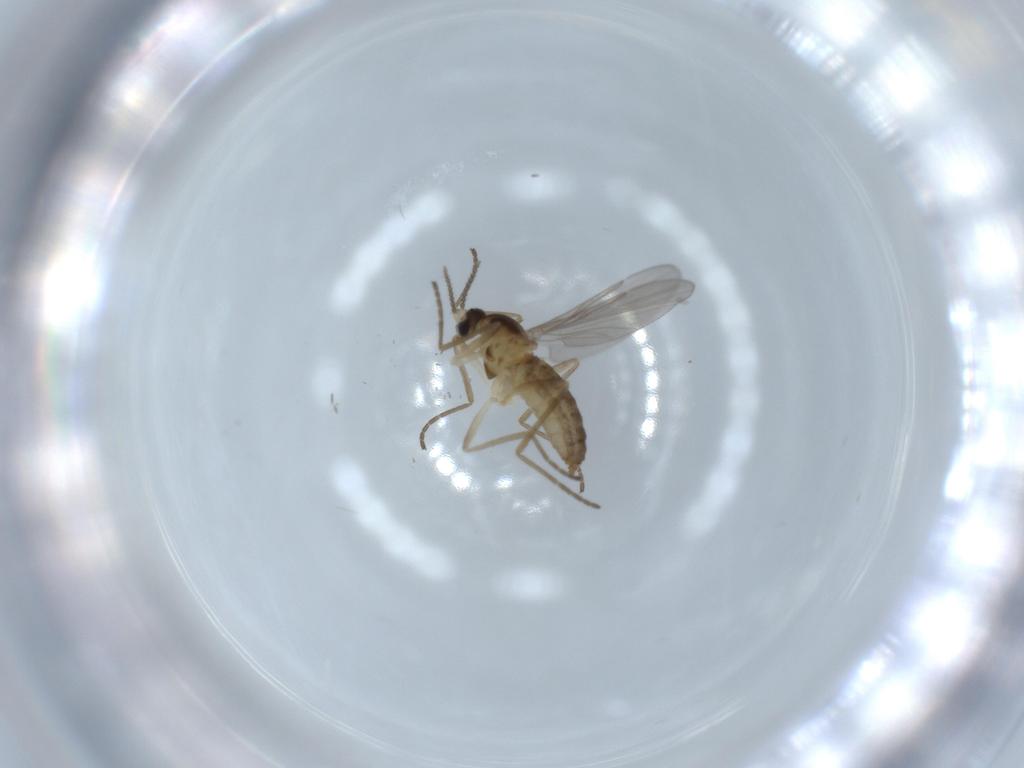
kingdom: Animalia
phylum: Arthropoda
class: Insecta
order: Diptera
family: Cecidomyiidae
